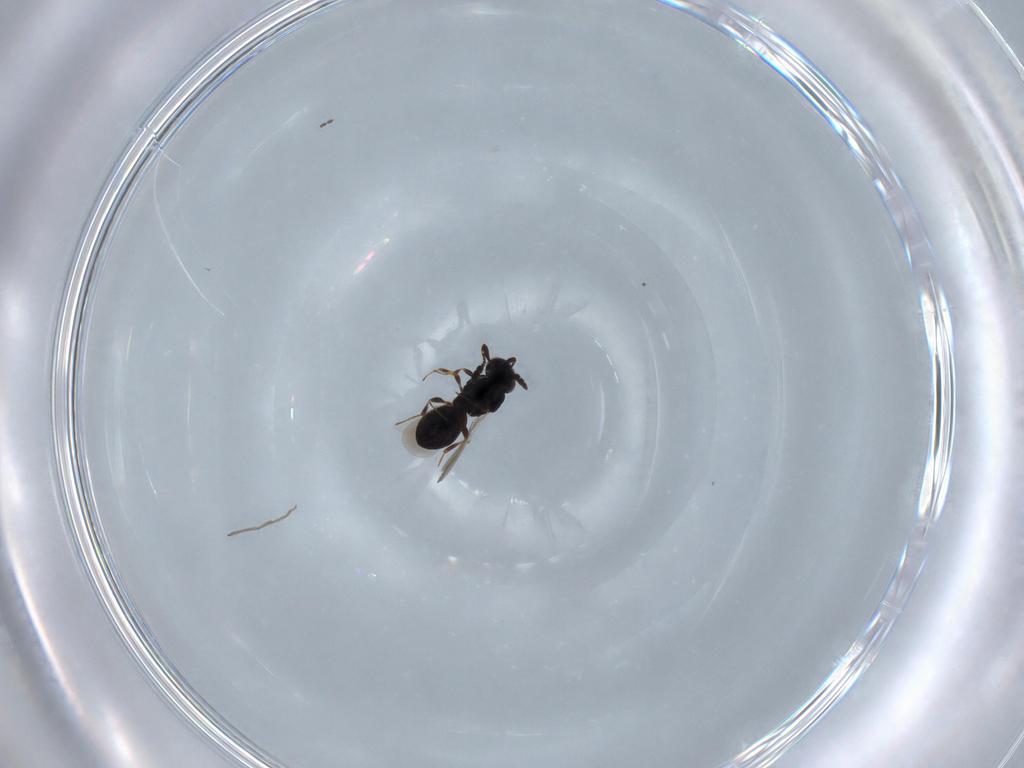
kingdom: Animalia
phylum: Arthropoda
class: Insecta
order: Hymenoptera
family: Platygastridae
